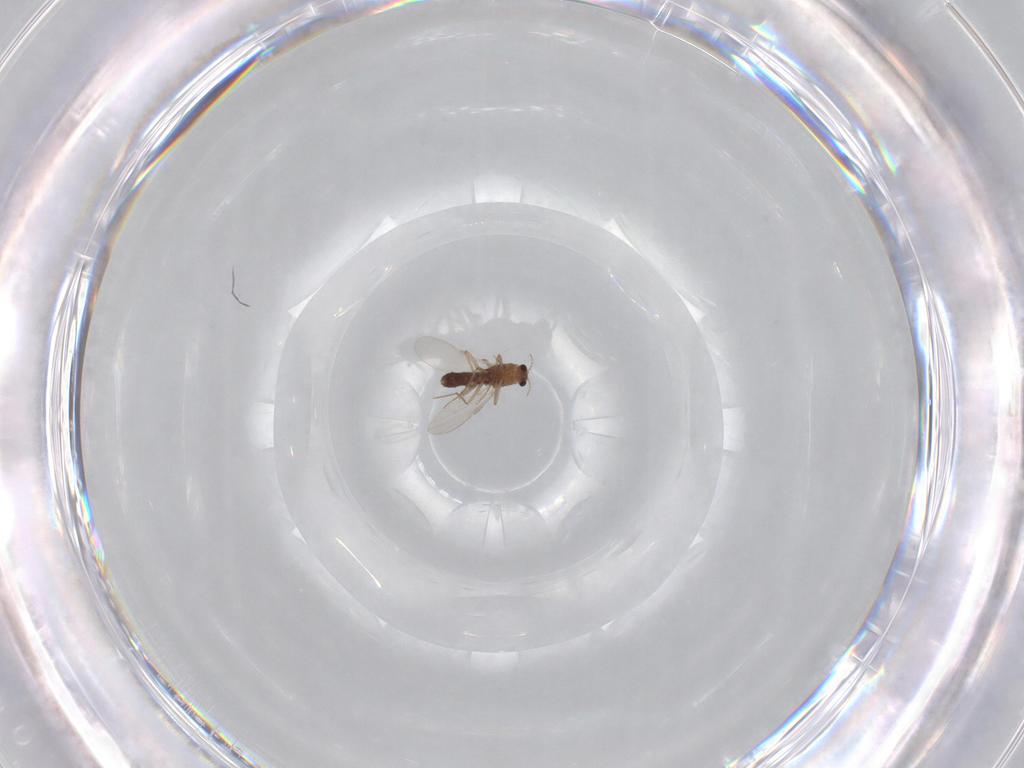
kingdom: Animalia
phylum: Arthropoda
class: Insecta
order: Diptera
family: Chironomidae
